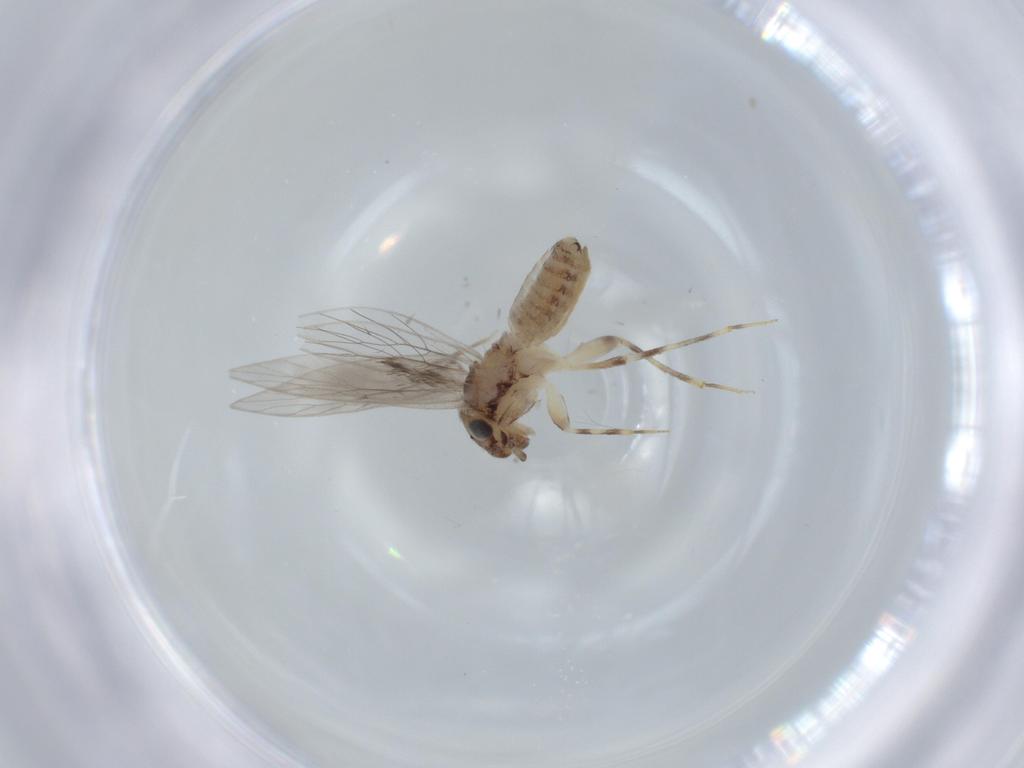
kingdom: Animalia
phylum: Arthropoda
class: Insecta
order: Psocodea
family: Lepidopsocidae
